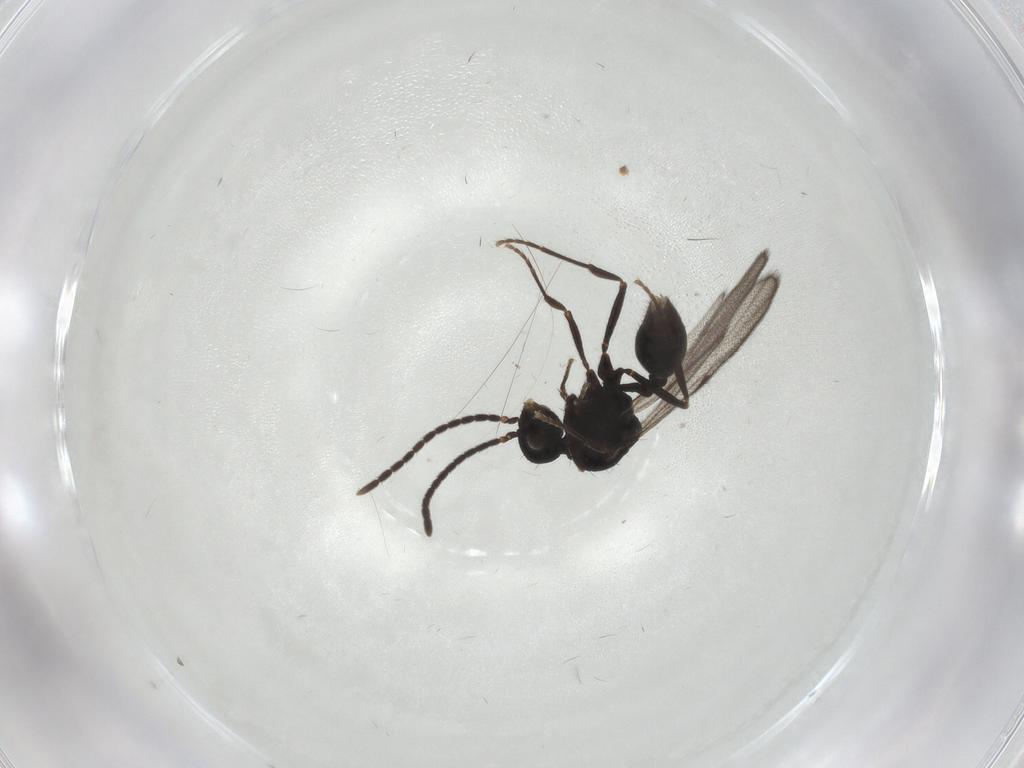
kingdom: Animalia
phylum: Arthropoda
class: Insecta
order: Hymenoptera
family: Formicidae
